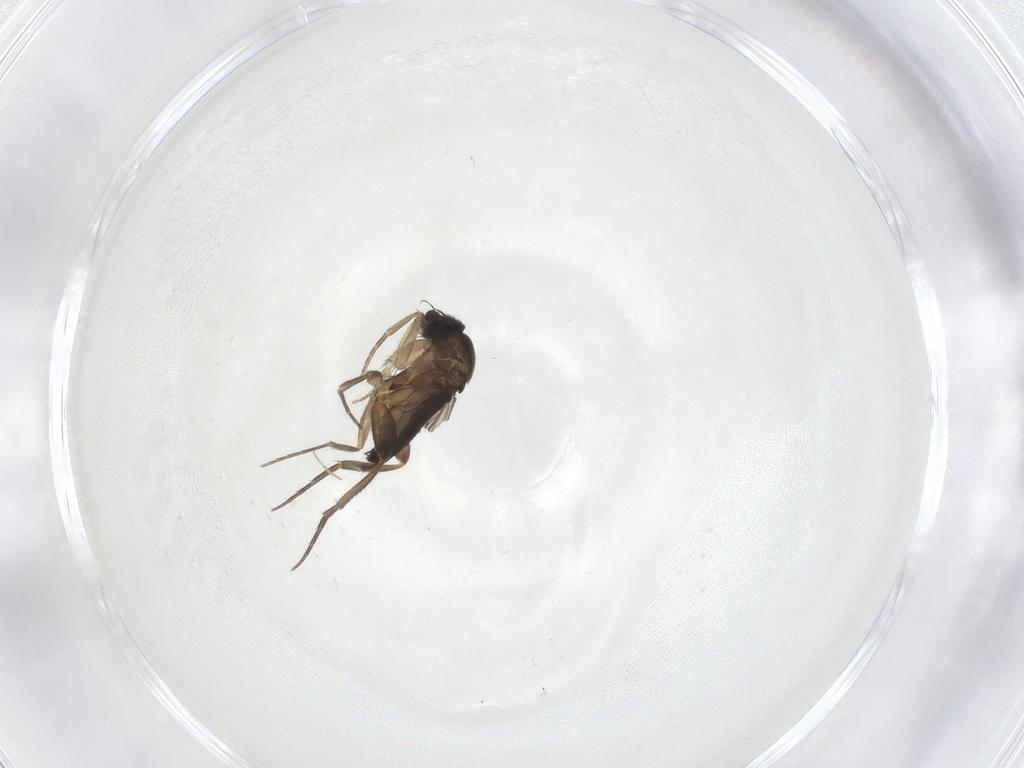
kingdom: Animalia
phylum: Arthropoda
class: Insecta
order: Diptera
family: Phoridae
